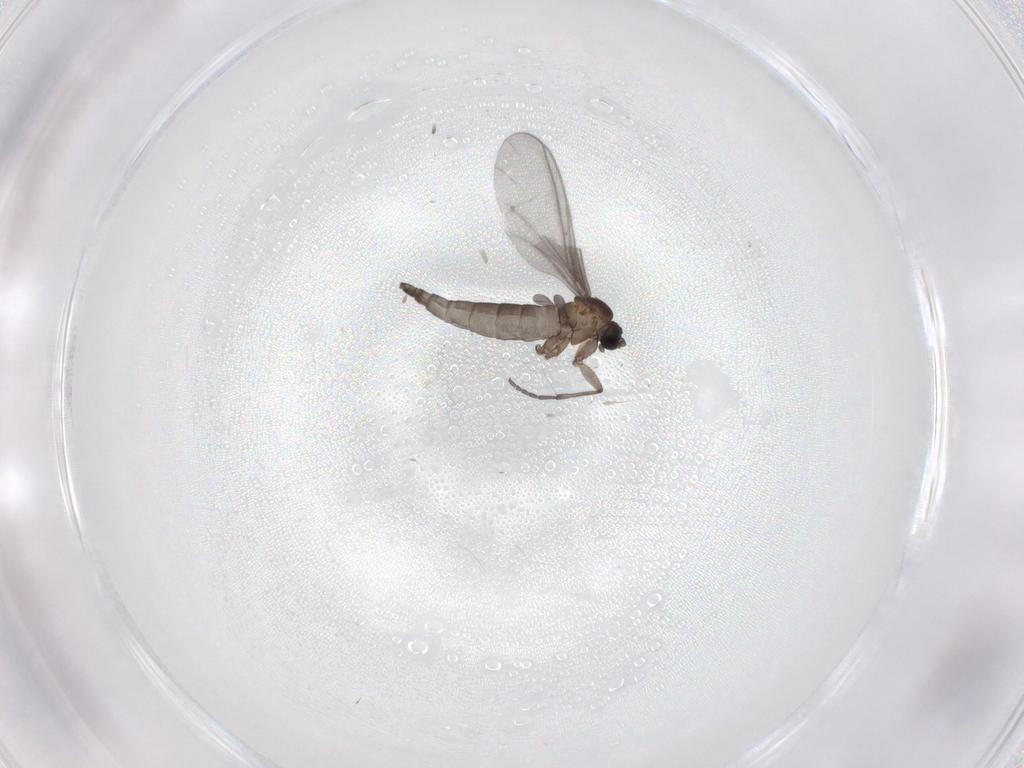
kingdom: Animalia
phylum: Arthropoda
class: Insecta
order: Diptera
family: Sciaridae
